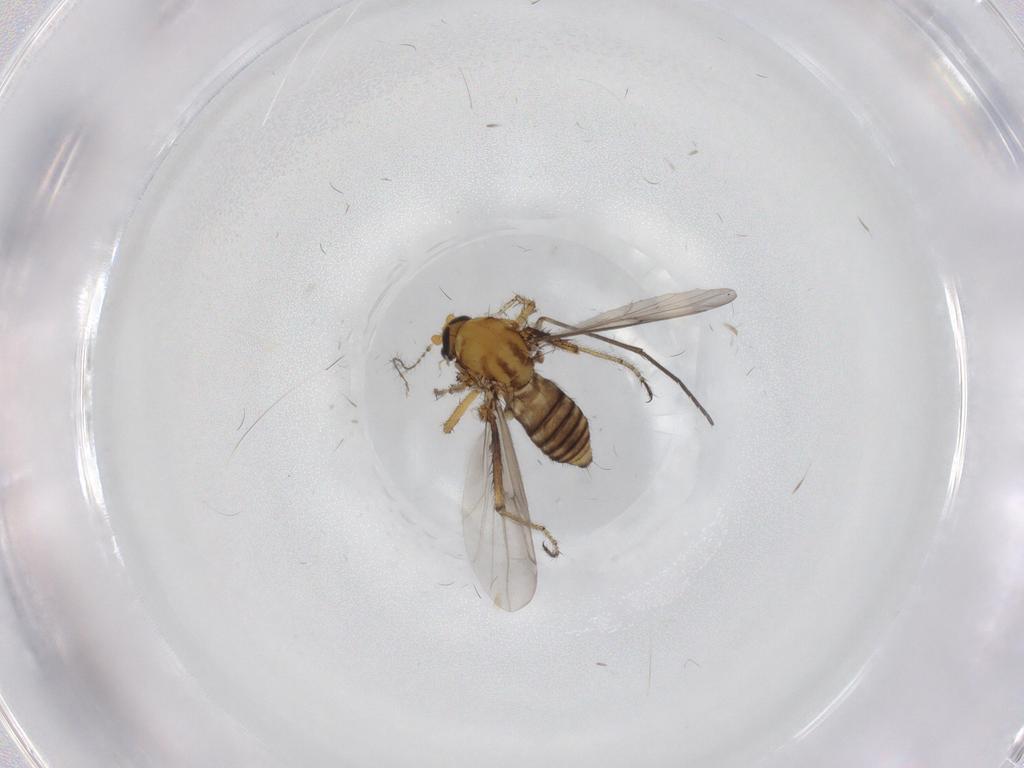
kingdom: Animalia
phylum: Arthropoda
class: Insecta
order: Diptera
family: Ceratopogonidae
